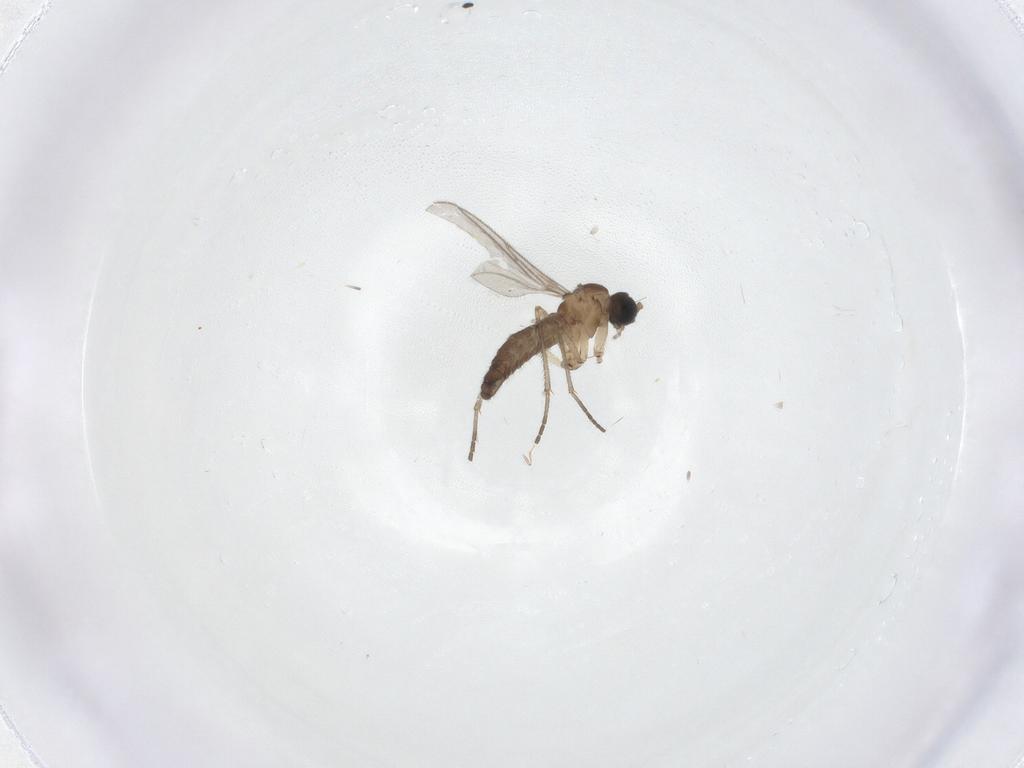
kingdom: Animalia
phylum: Arthropoda
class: Insecta
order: Diptera
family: Sciaridae
